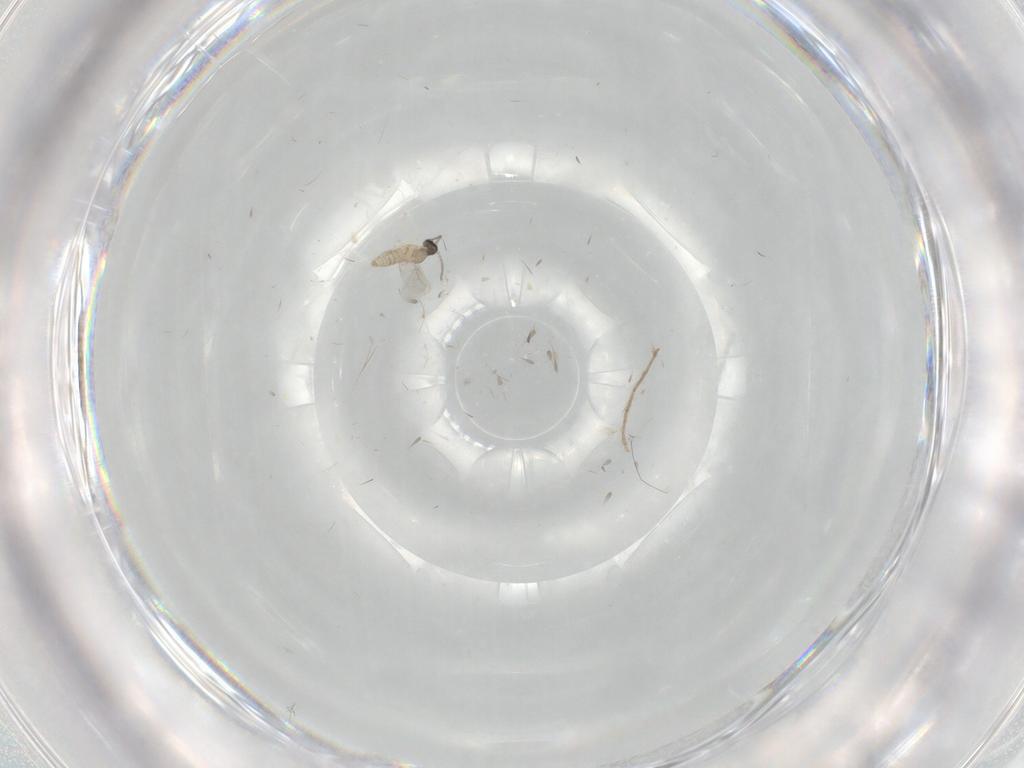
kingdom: Animalia
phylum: Arthropoda
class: Insecta
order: Diptera
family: Chironomidae
